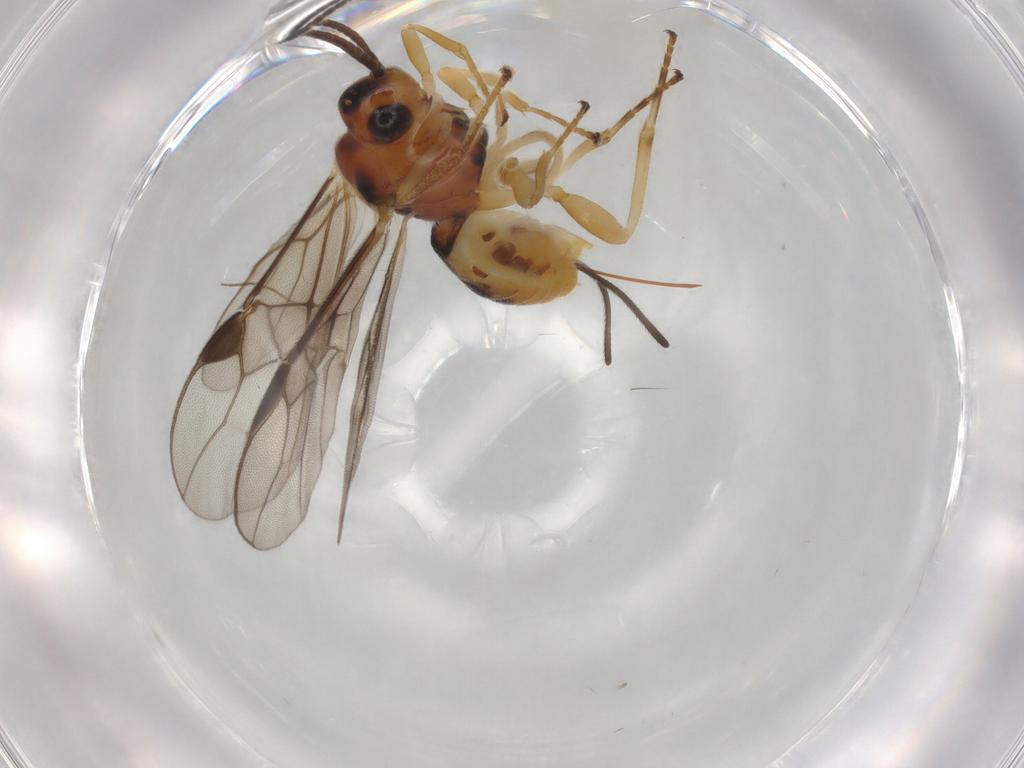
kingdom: Animalia
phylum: Arthropoda
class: Insecta
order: Hymenoptera
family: Braconidae
